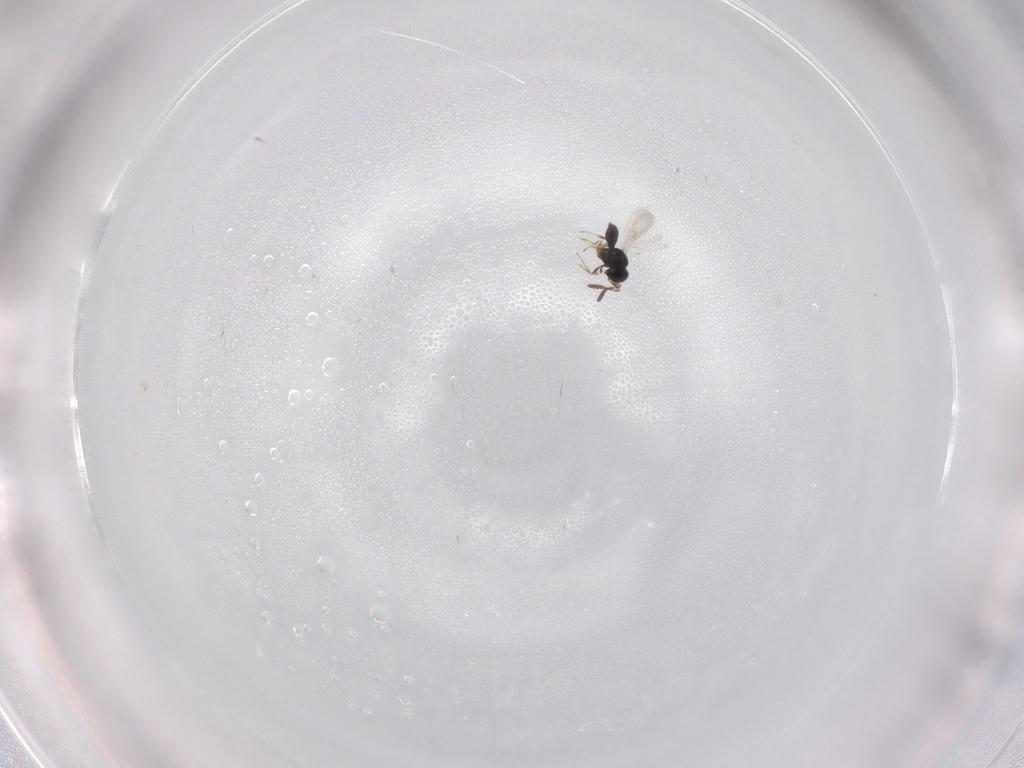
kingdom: Animalia
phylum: Arthropoda
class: Insecta
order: Hymenoptera
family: Scelionidae
